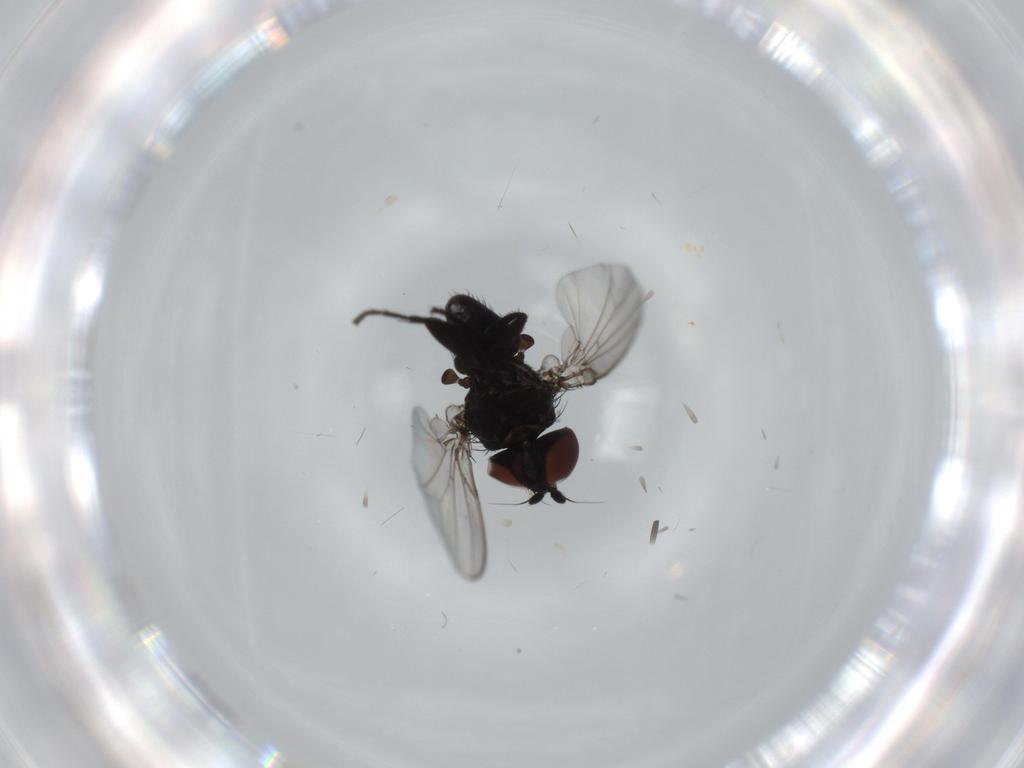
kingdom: Animalia
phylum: Arthropoda
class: Insecta
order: Diptera
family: Milichiidae
